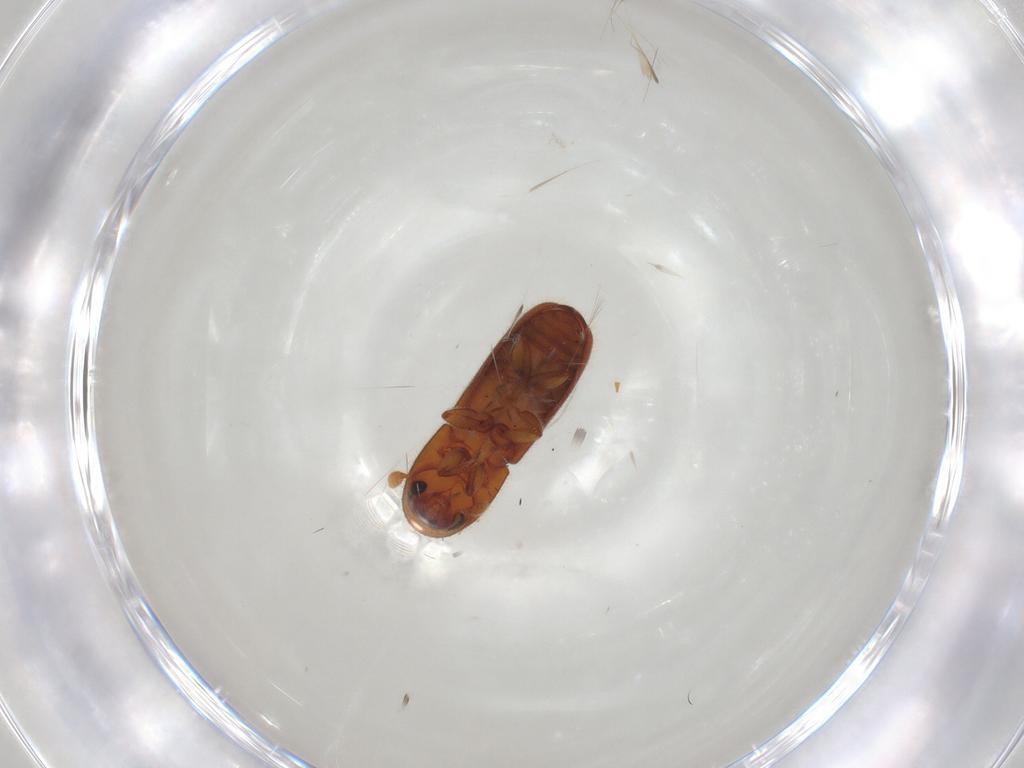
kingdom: Animalia
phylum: Arthropoda
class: Insecta
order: Coleoptera
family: Curculionidae
